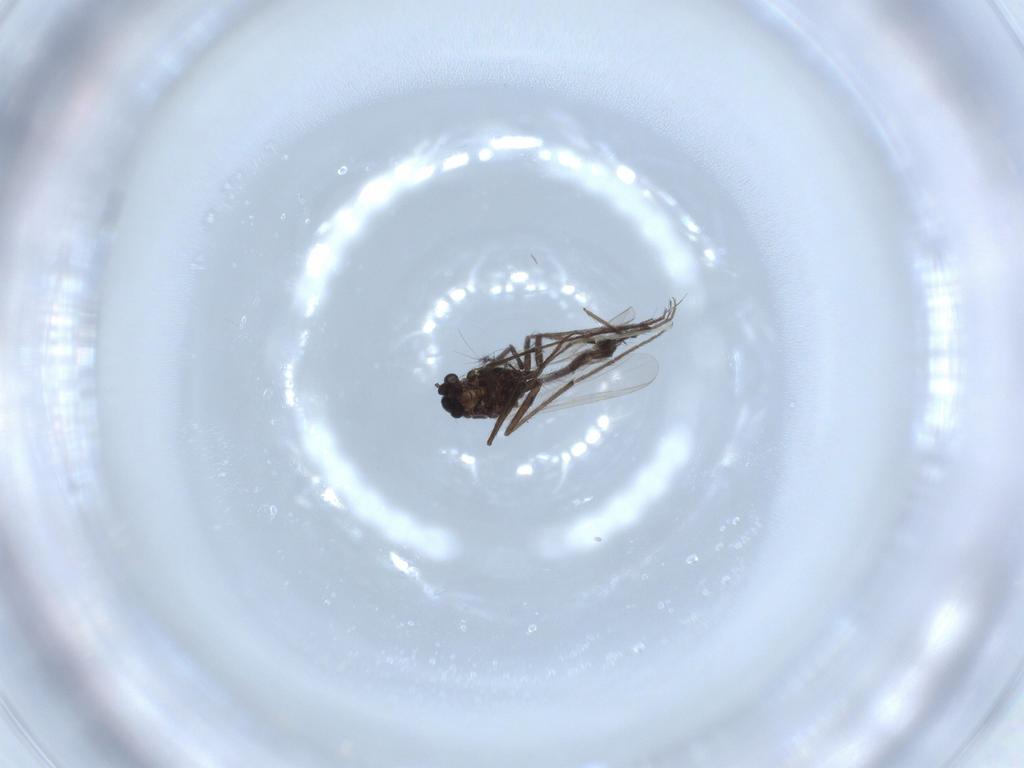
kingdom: Animalia
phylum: Arthropoda
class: Insecta
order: Diptera
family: Chironomidae
